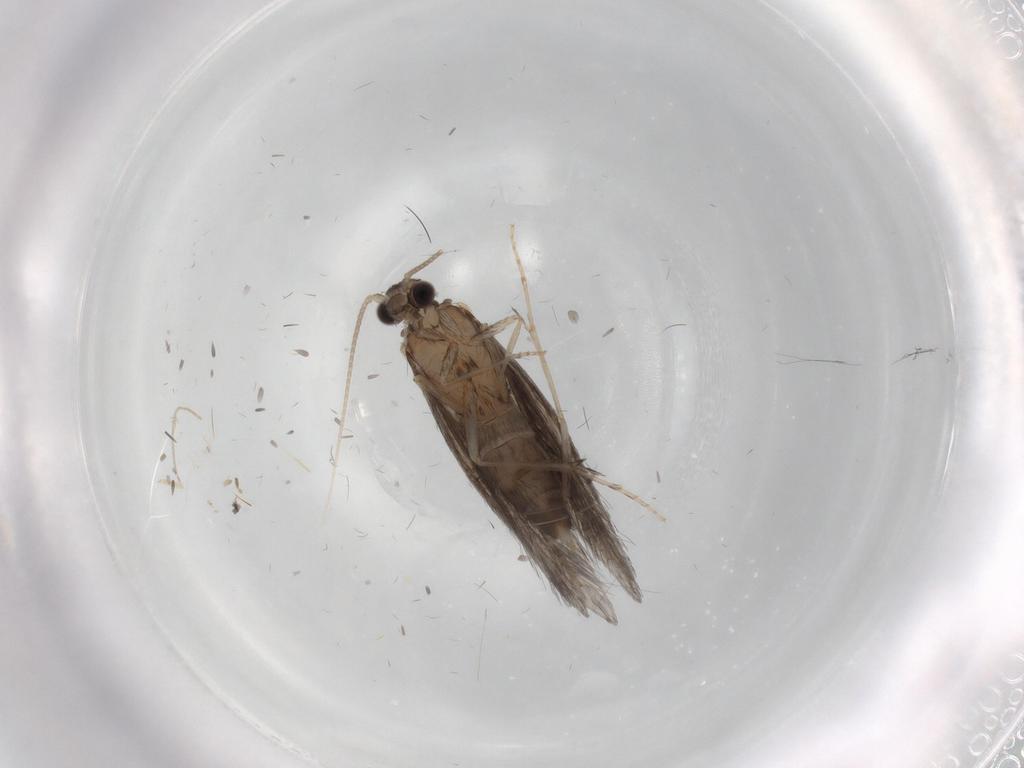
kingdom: Animalia
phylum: Arthropoda
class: Insecta
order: Trichoptera
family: Hydroptilidae
